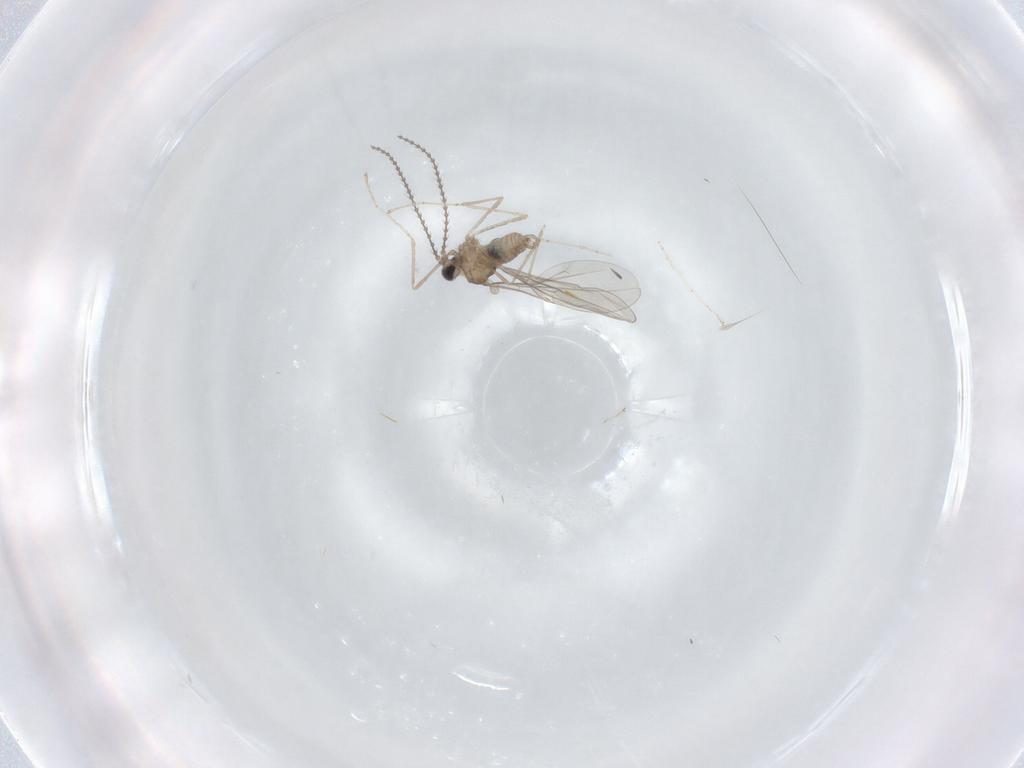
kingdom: Animalia
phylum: Arthropoda
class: Insecta
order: Diptera
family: Cecidomyiidae
